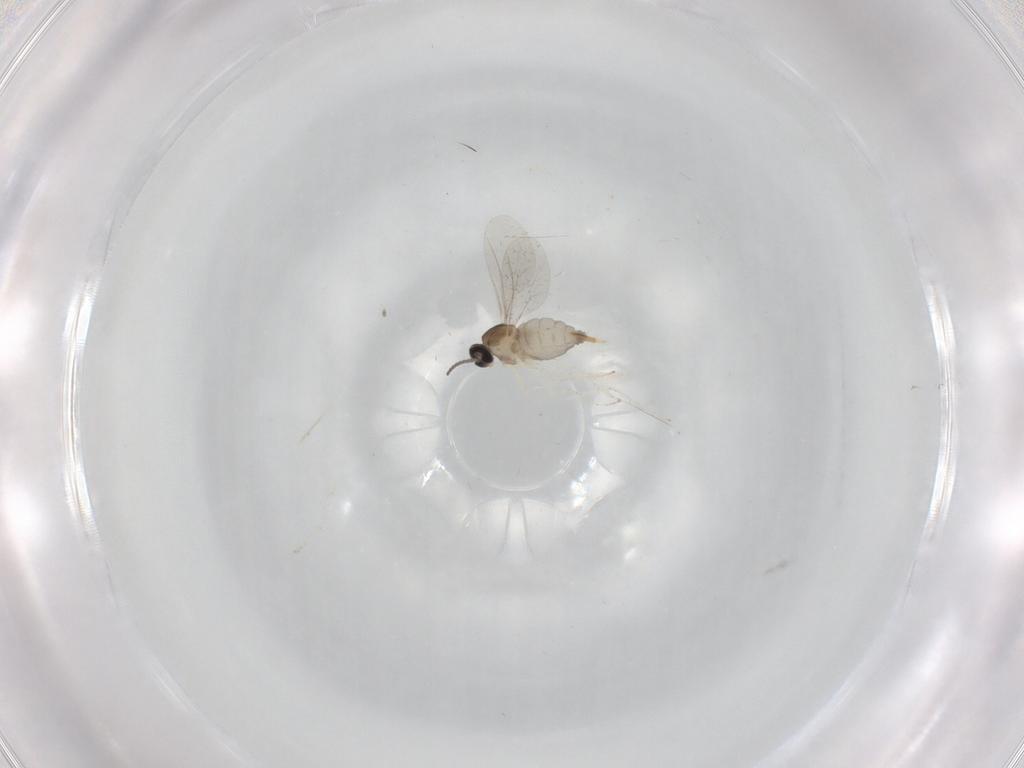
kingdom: Animalia
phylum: Arthropoda
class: Insecta
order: Diptera
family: Cecidomyiidae
